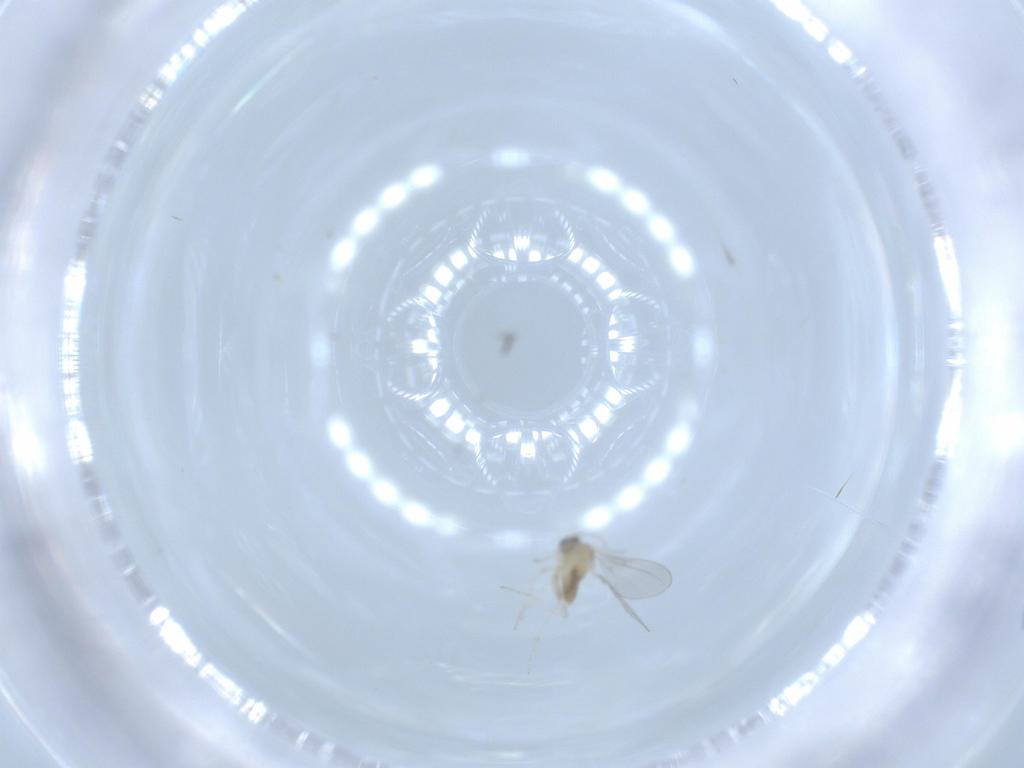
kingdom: Animalia
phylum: Arthropoda
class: Insecta
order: Diptera
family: Cecidomyiidae
